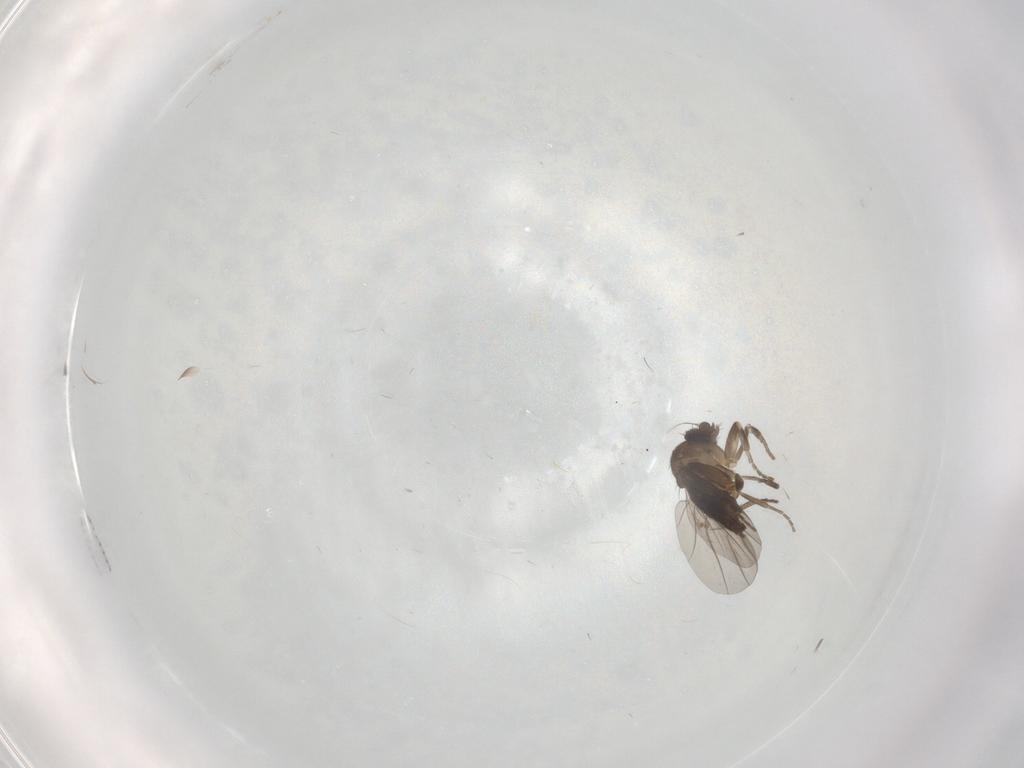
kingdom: Animalia
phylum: Arthropoda
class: Insecta
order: Diptera
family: Psychodidae
